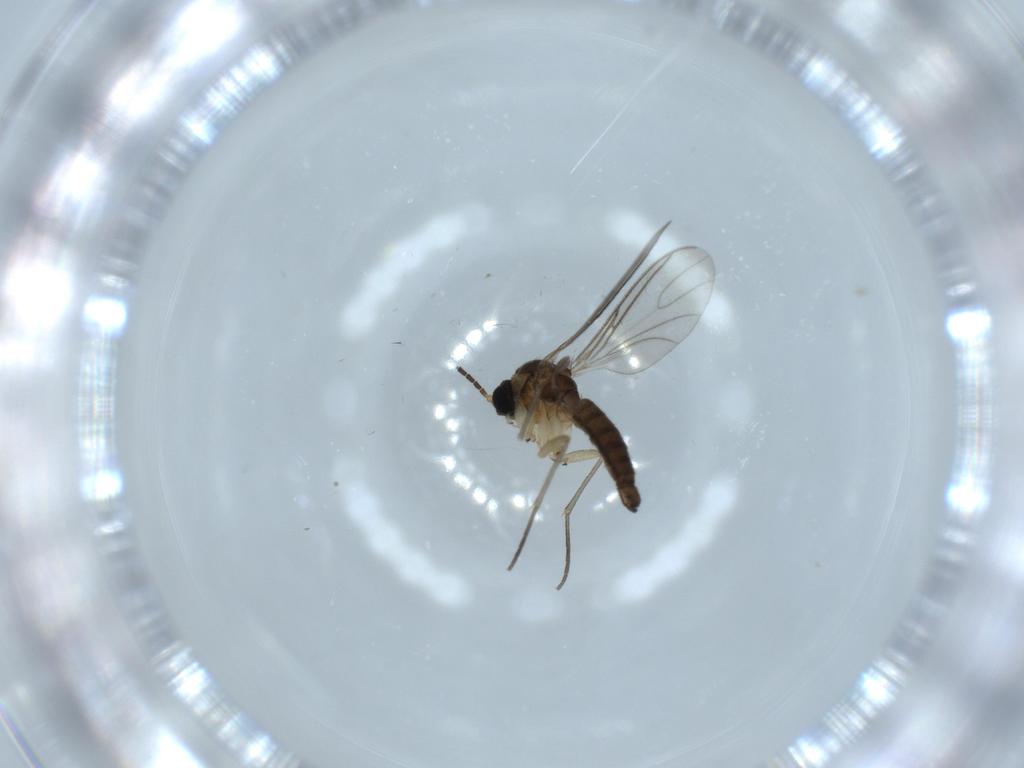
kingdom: Animalia
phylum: Arthropoda
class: Insecta
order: Diptera
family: Sciaridae
